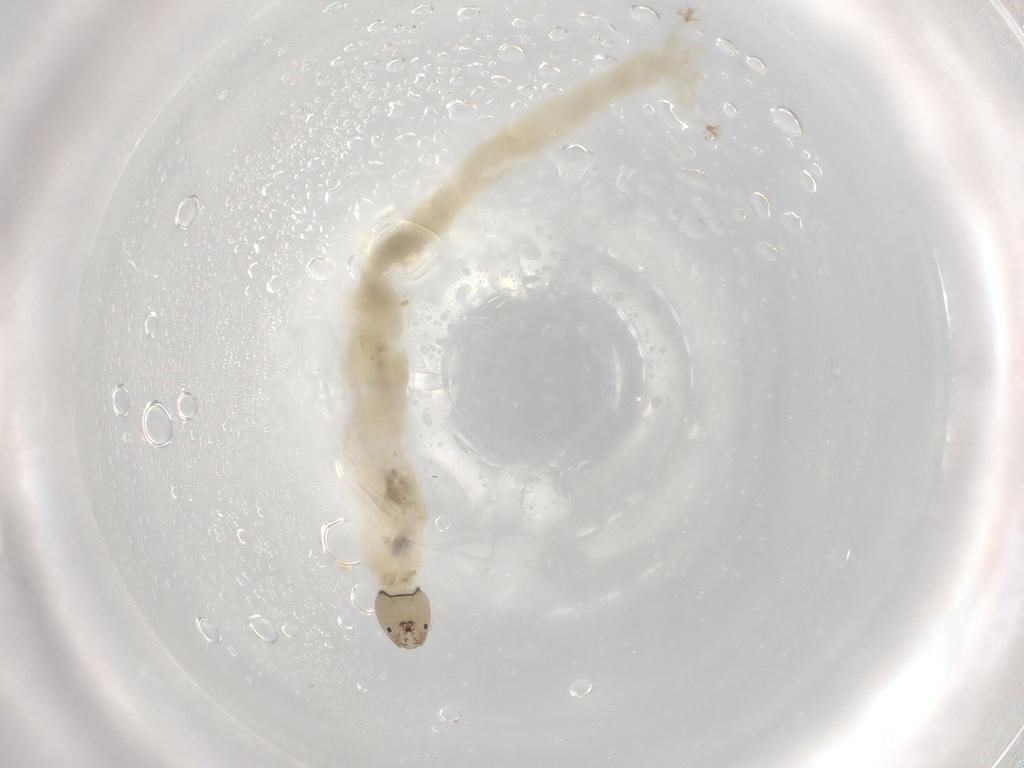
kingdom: Animalia
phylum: Arthropoda
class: Insecta
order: Diptera
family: Chironomidae
